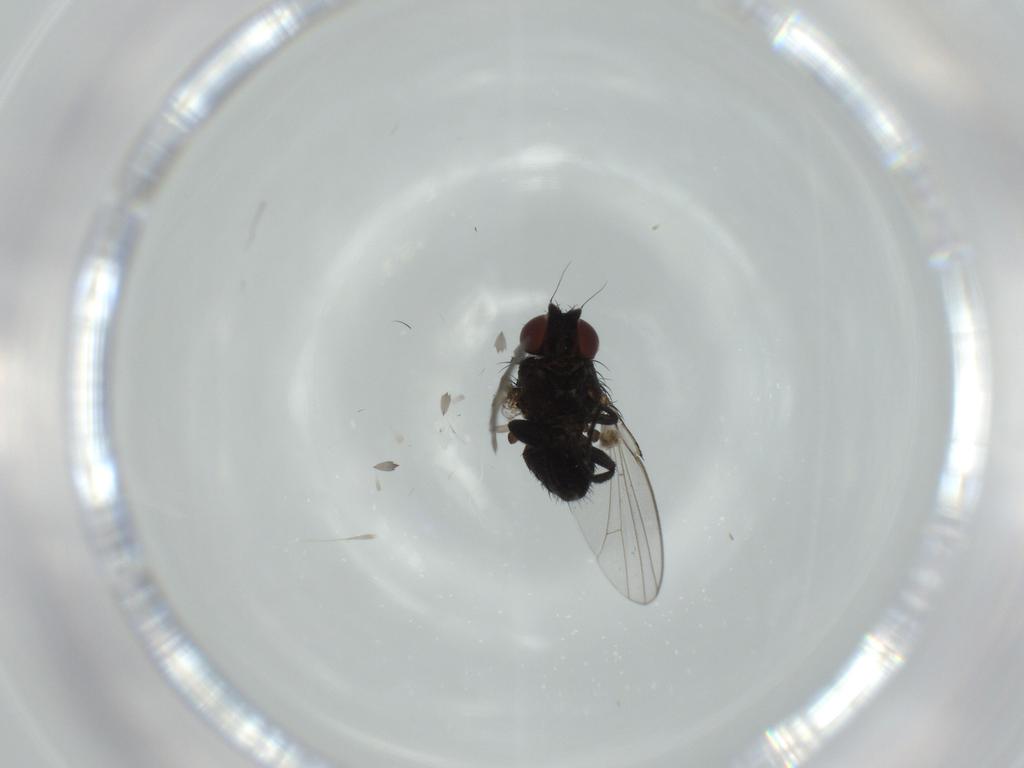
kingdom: Animalia
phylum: Arthropoda
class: Insecta
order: Diptera
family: Milichiidae
